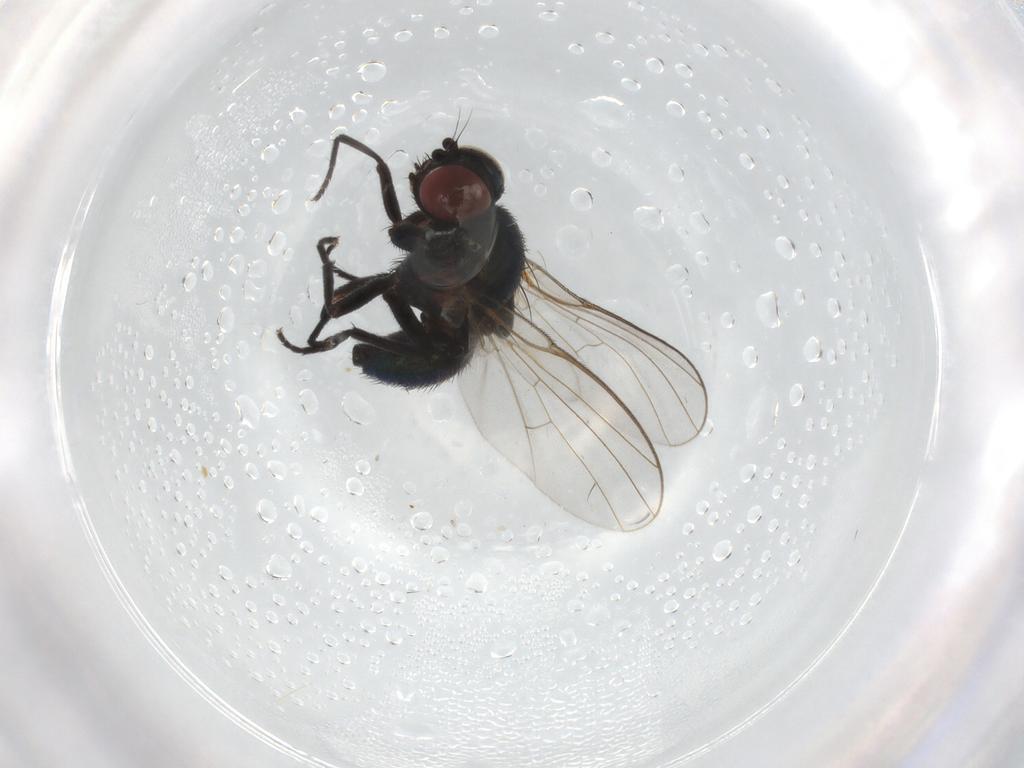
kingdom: Animalia
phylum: Arthropoda
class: Insecta
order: Diptera
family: Agromyzidae
